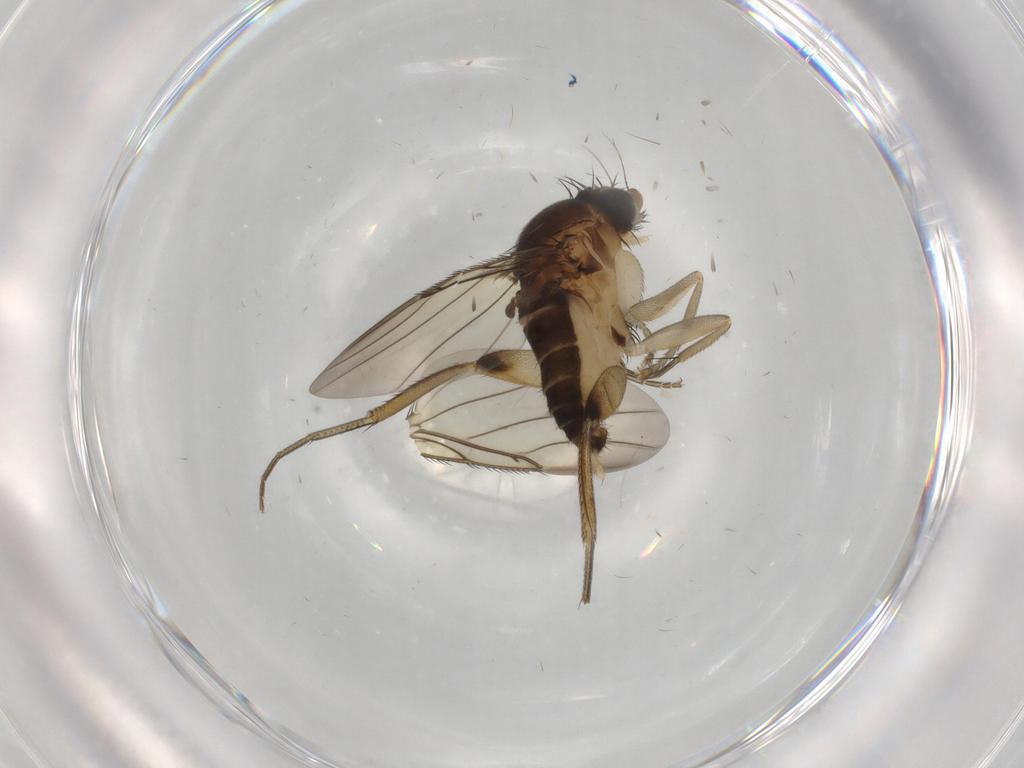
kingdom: Animalia
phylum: Arthropoda
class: Insecta
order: Diptera
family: Phoridae
